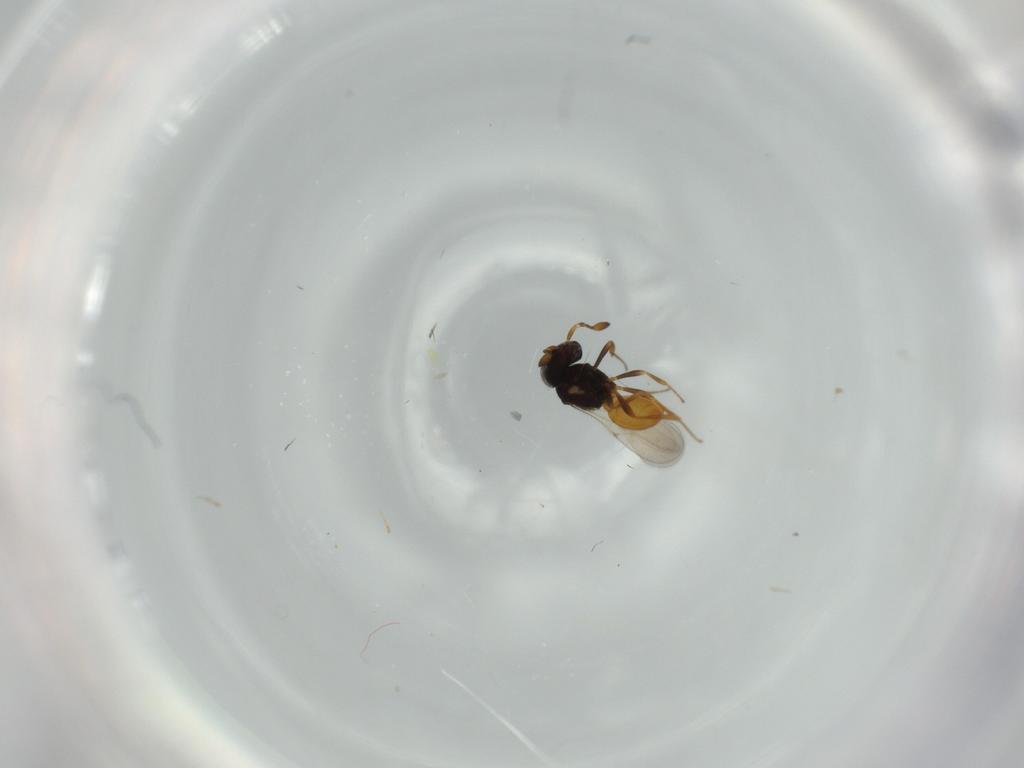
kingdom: Animalia
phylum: Arthropoda
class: Insecta
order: Hymenoptera
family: Scelionidae
